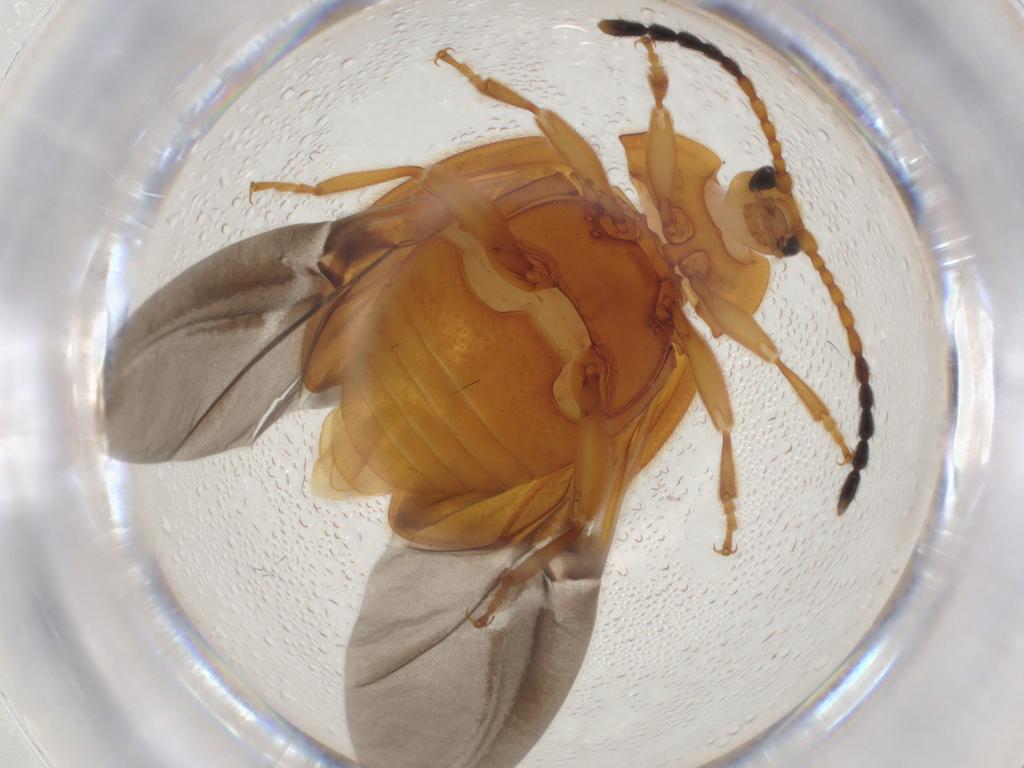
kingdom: Animalia
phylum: Arthropoda
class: Insecta
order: Coleoptera
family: Endomychidae
